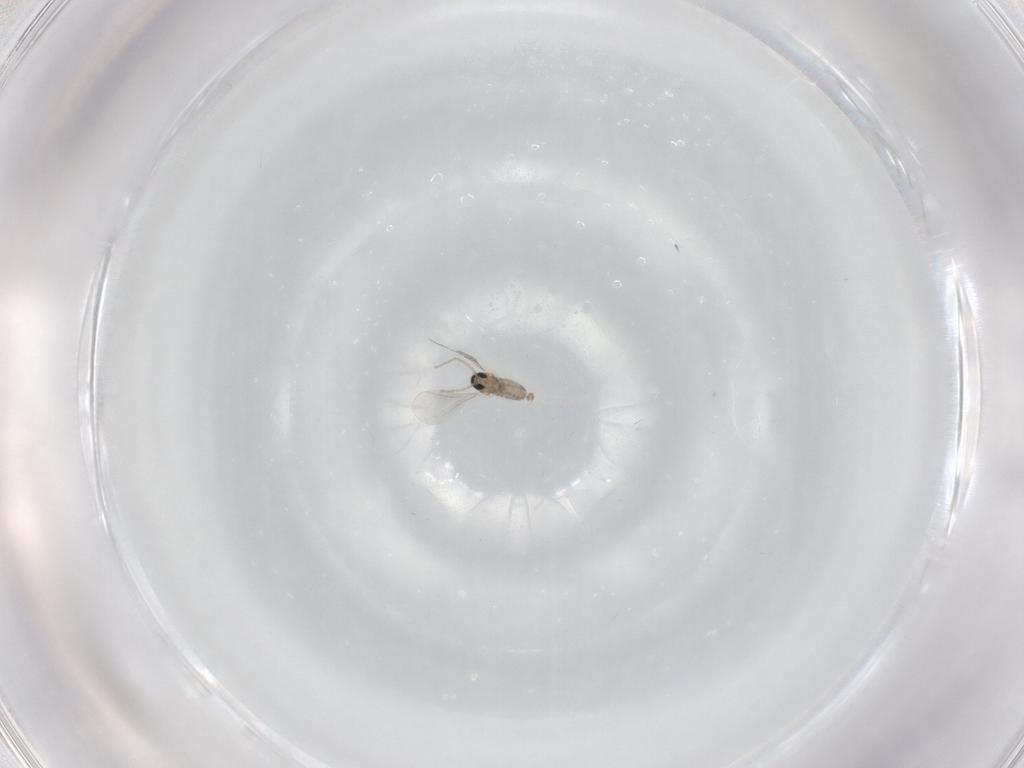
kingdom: Animalia
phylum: Arthropoda
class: Insecta
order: Diptera
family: Cecidomyiidae
